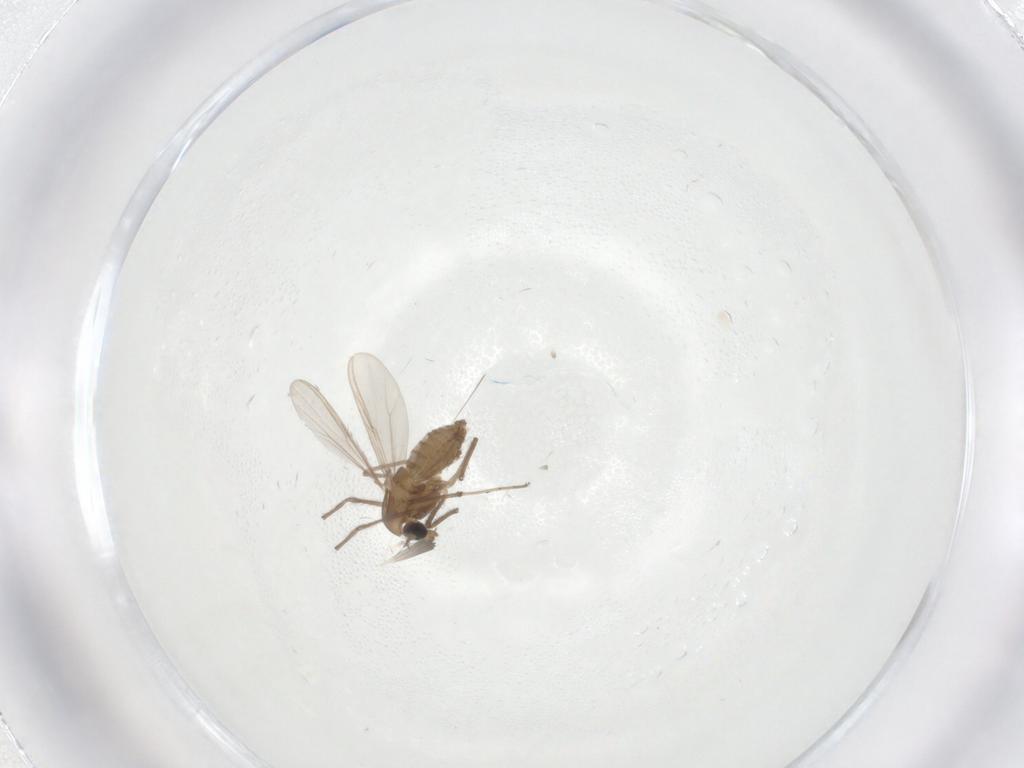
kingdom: Animalia
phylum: Arthropoda
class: Insecta
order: Diptera
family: Chironomidae
